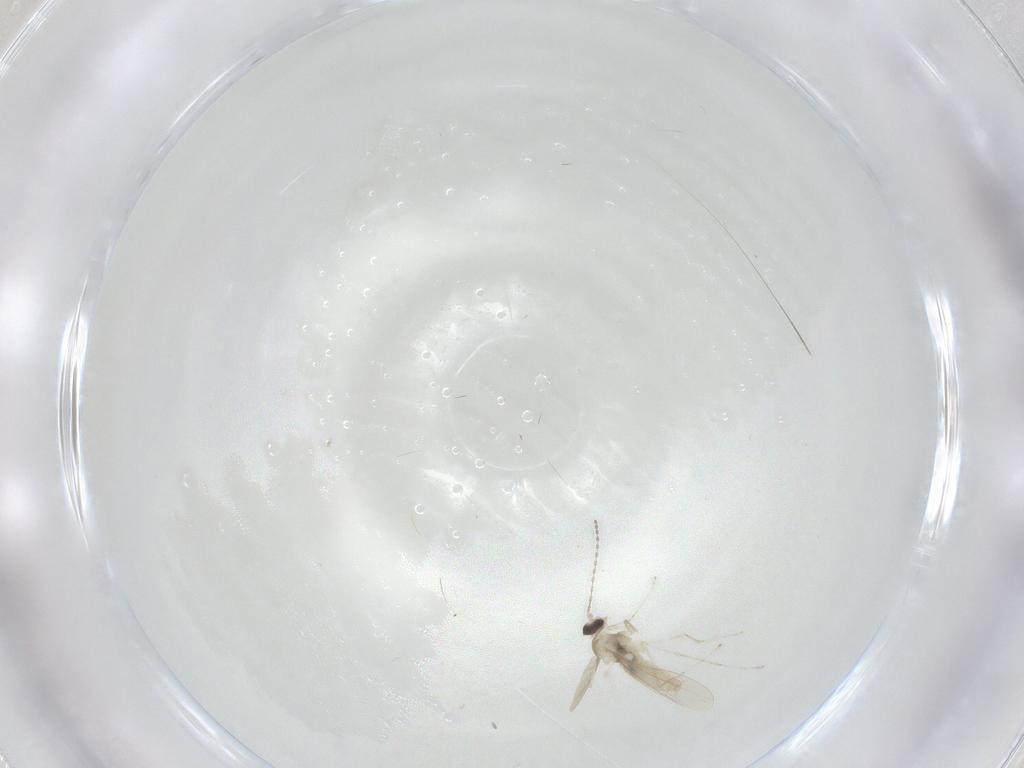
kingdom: Animalia
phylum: Arthropoda
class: Insecta
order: Diptera
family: Cecidomyiidae
